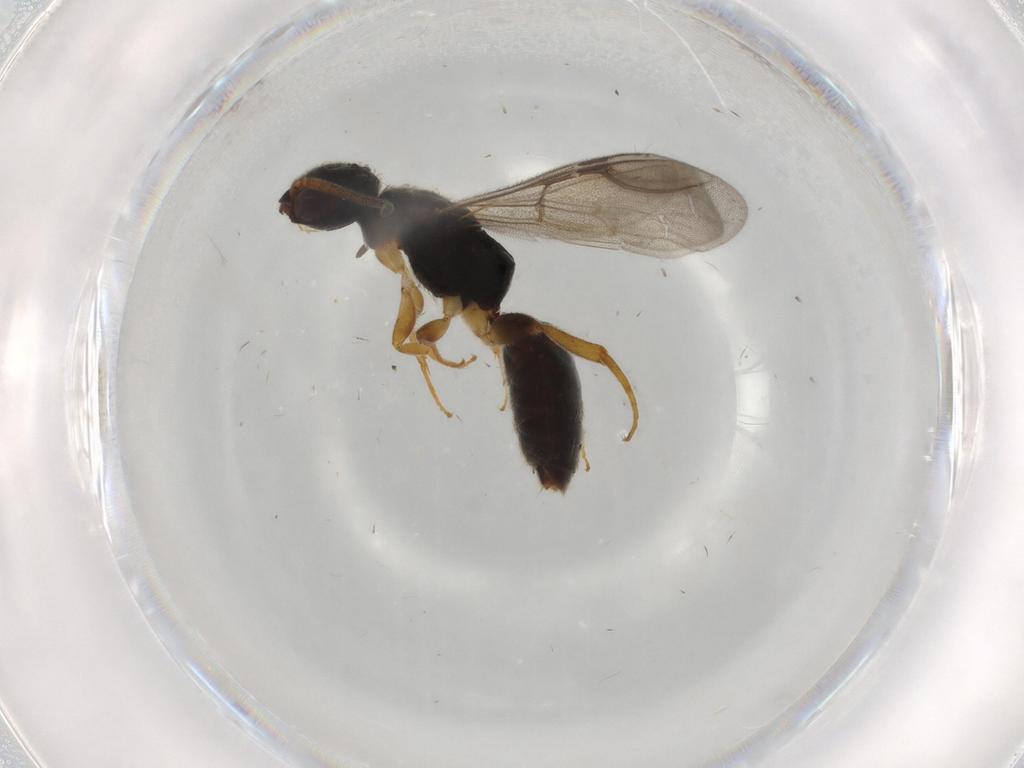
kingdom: Animalia
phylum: Arthropoda
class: Insecta
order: Hymenoptera
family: Bethylidae
